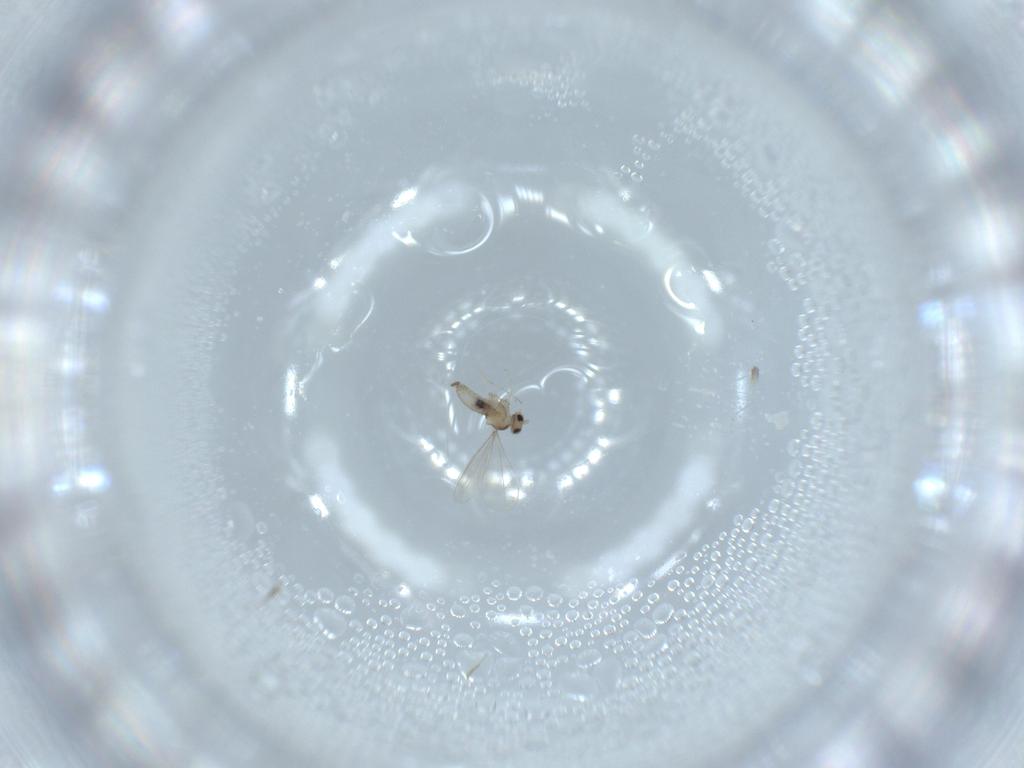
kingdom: Animalia
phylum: Arthropoda
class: Insecta
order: Diptera
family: Cecidomyiidae
